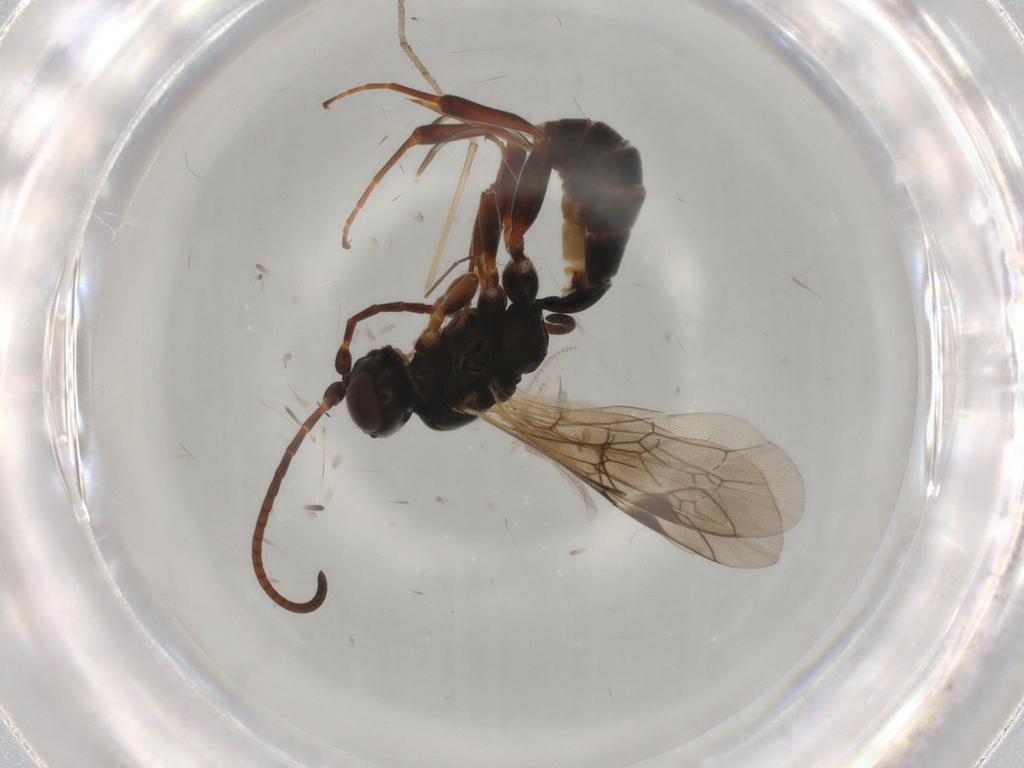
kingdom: Animalia
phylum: Arthropoda
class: Insecta
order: Hymenoptera
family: Ichneumonidae
